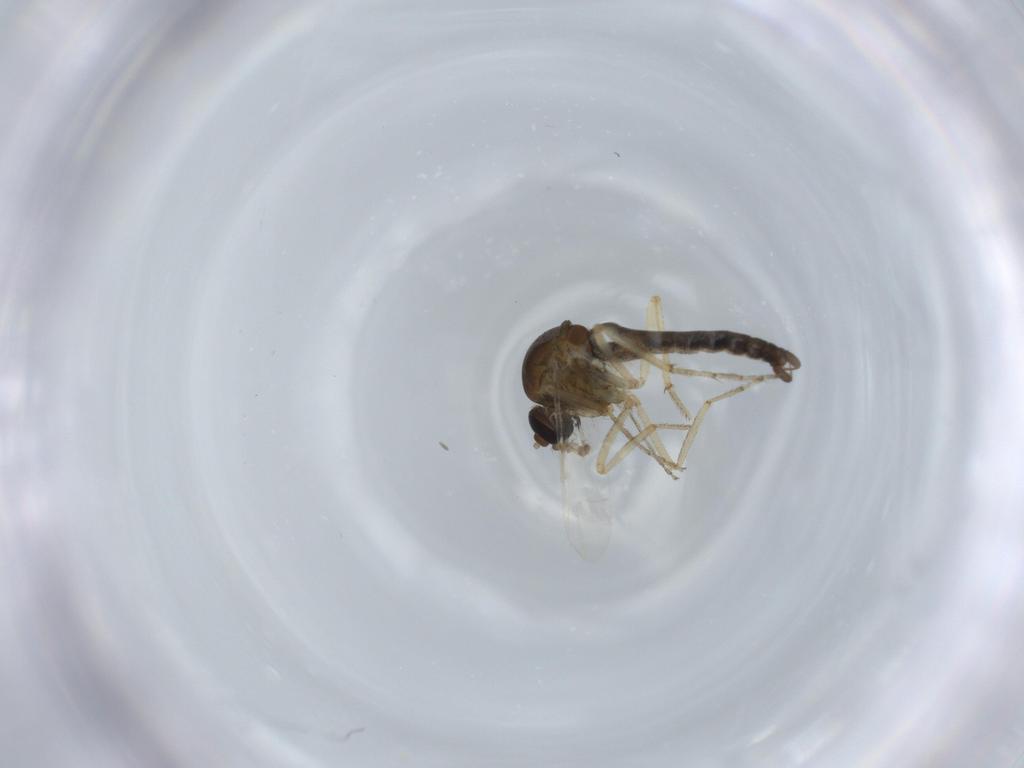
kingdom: Animalia
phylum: Arthropoda
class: Insecta
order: Diptera
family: Ceratopogonidae
